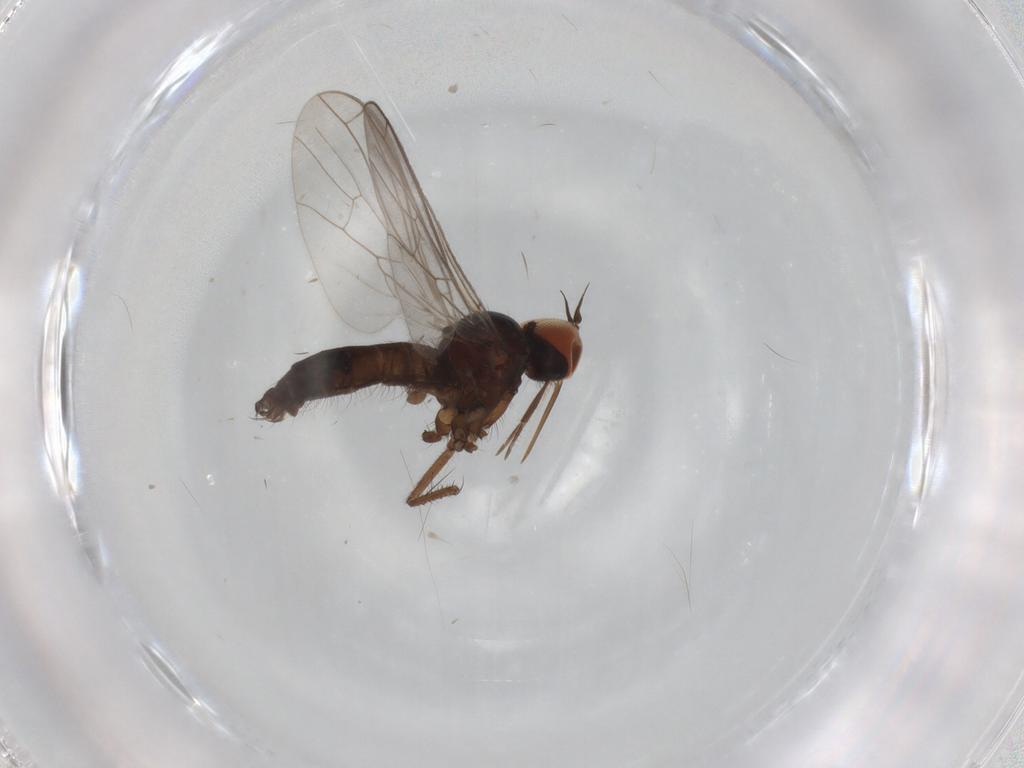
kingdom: Animalia
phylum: Arthropoda
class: Insecta
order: Diptera
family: Empididae
